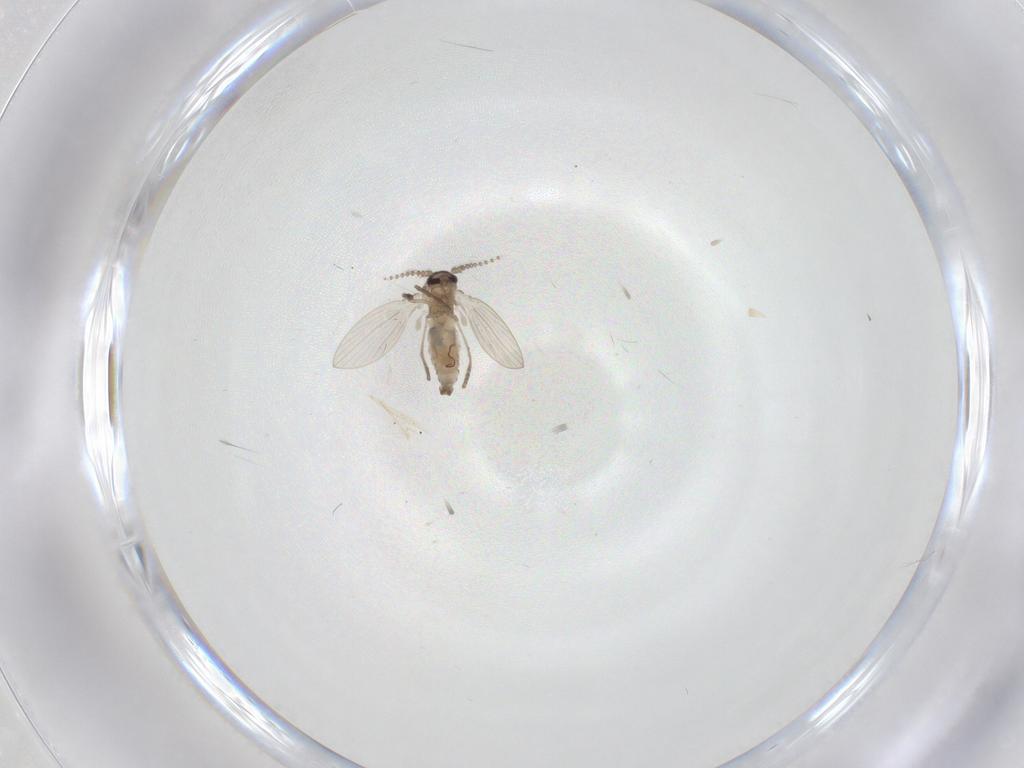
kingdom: Animalia
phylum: Arthropoda
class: Insecta
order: Diptera
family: Psychodidae
